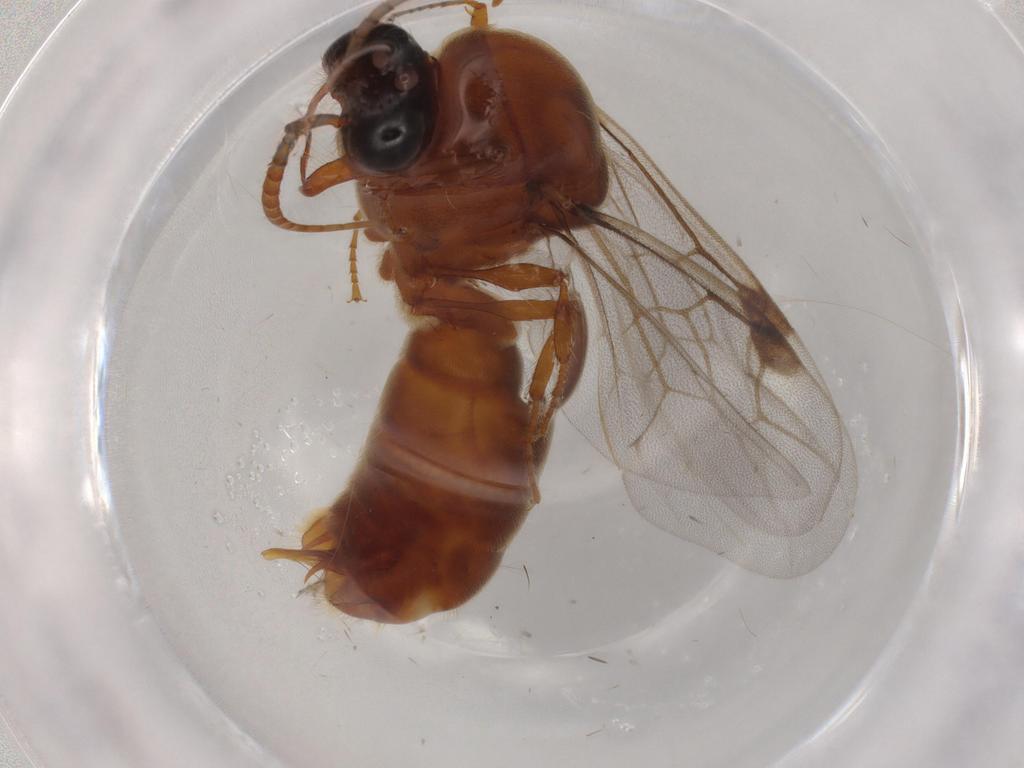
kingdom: Animalia
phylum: Arthropoda
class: Insecta
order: Hymenoptera
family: Formicidae
